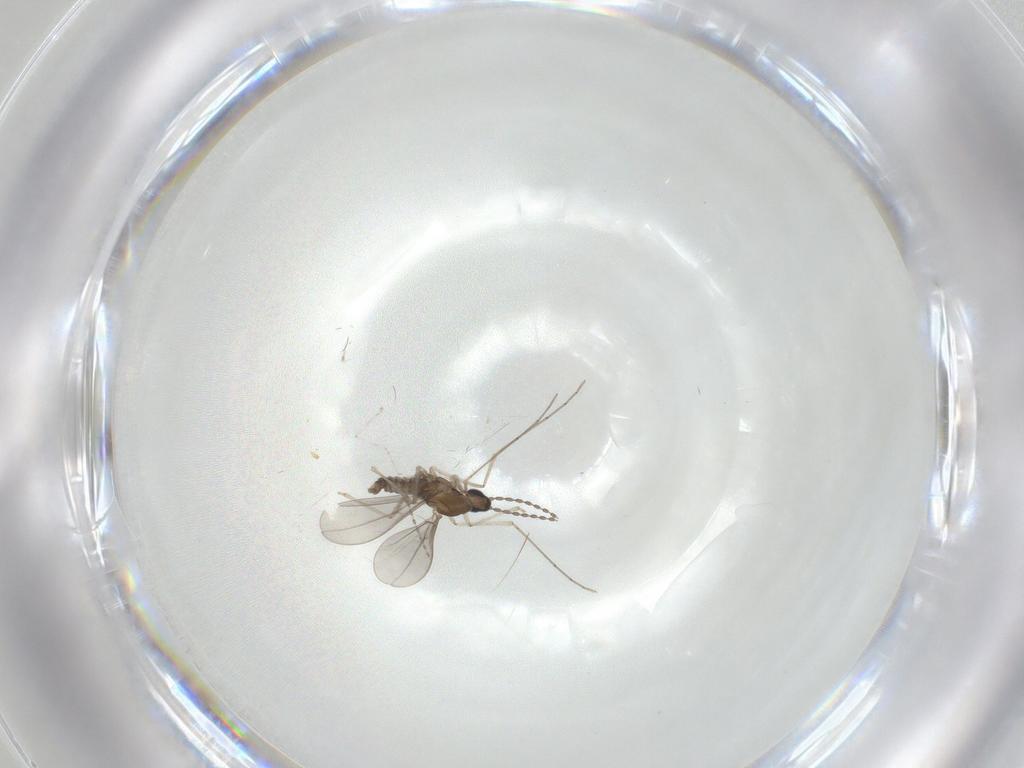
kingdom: Animalia
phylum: Arthropoda
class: Insecta
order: Diptera
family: Cecidomyiidae
